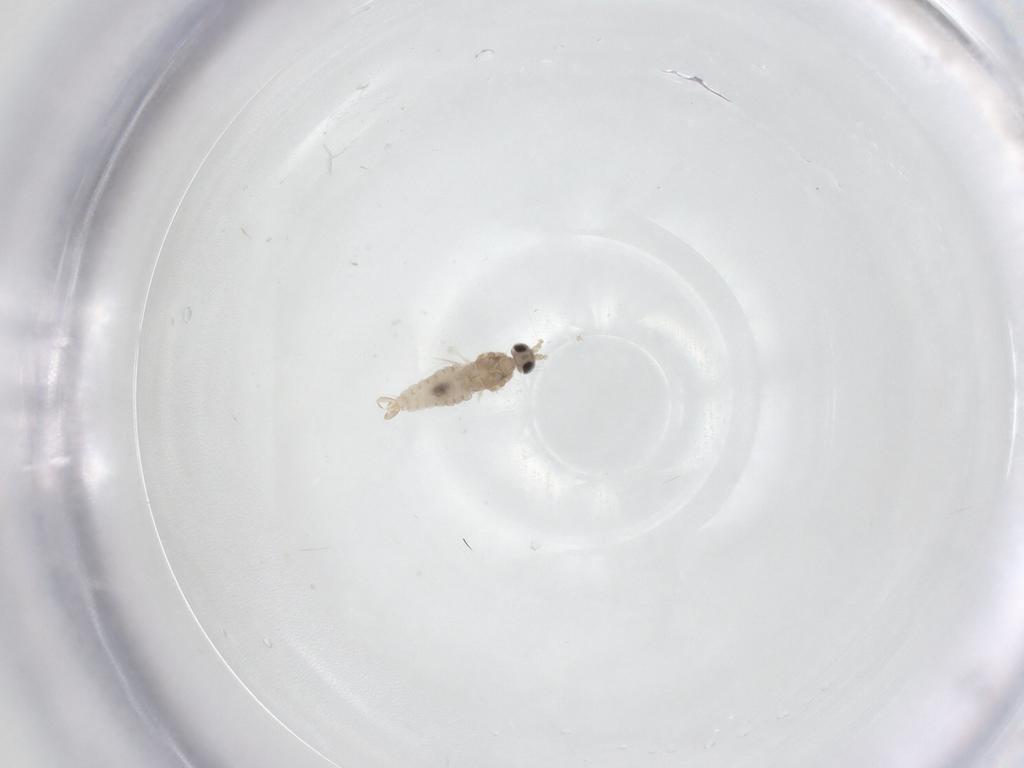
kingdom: Animalia
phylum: Arthropoda
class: Insecta
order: Diptera
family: Cecidomyiidae
